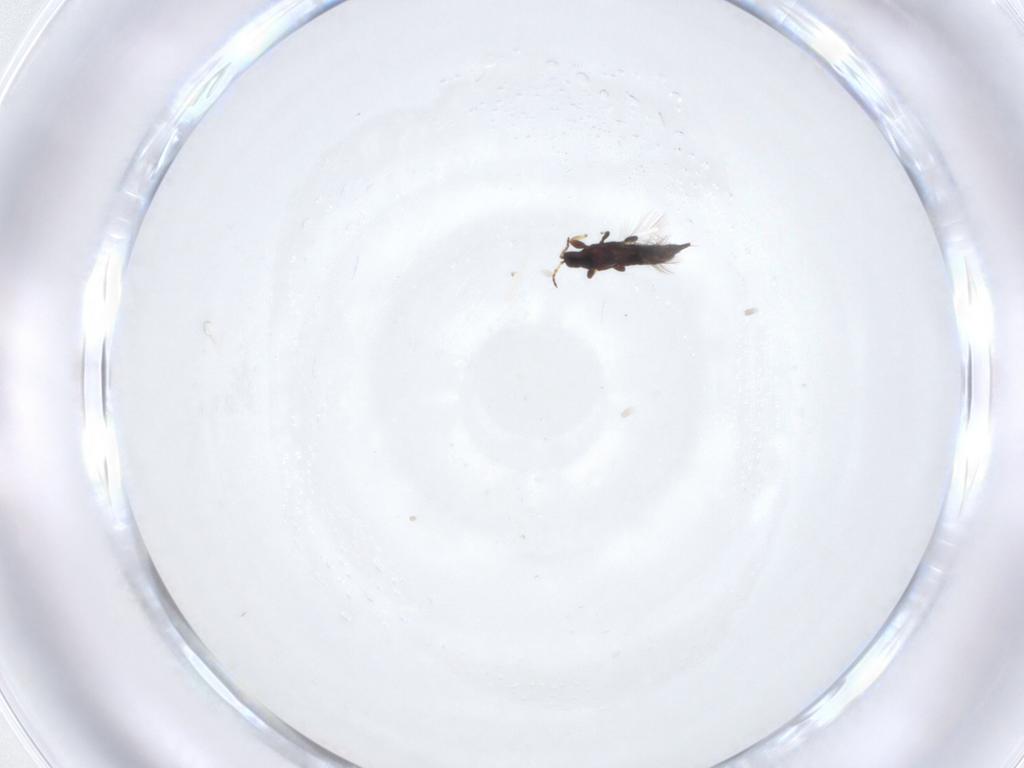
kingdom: Animalia
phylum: Arthropoda
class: Insecta
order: Thysanoptera
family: Phlaeothripidae
